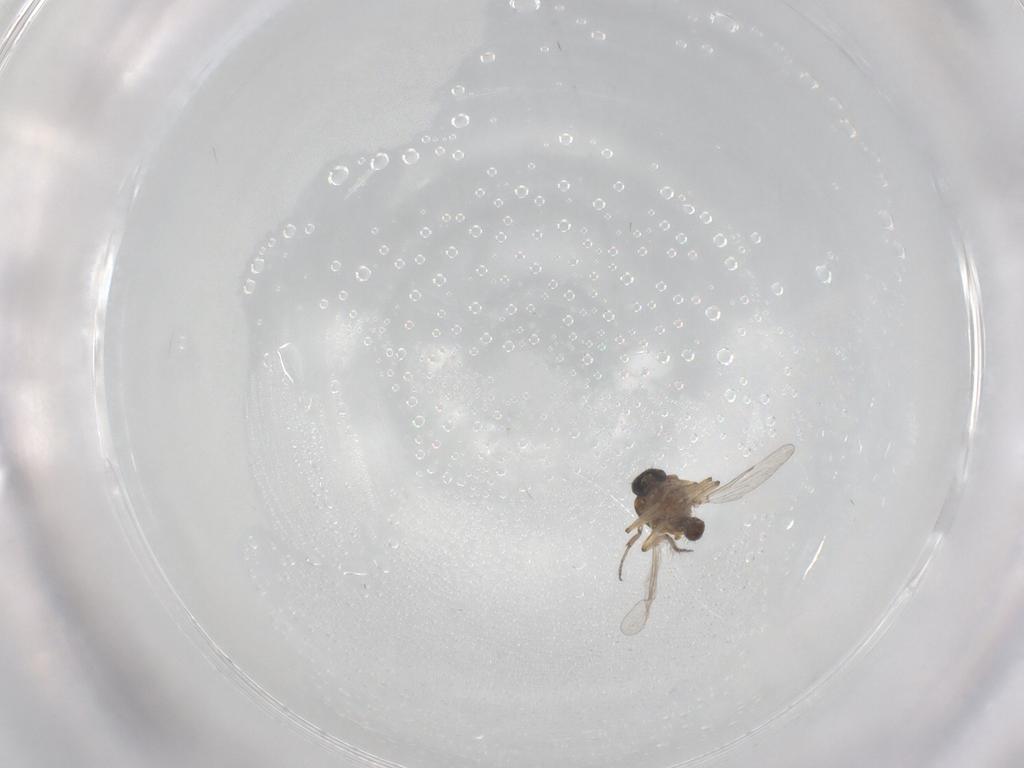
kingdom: Animalia
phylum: Arthropoda
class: Insecta
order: Diptera
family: Ceratopogonidae
